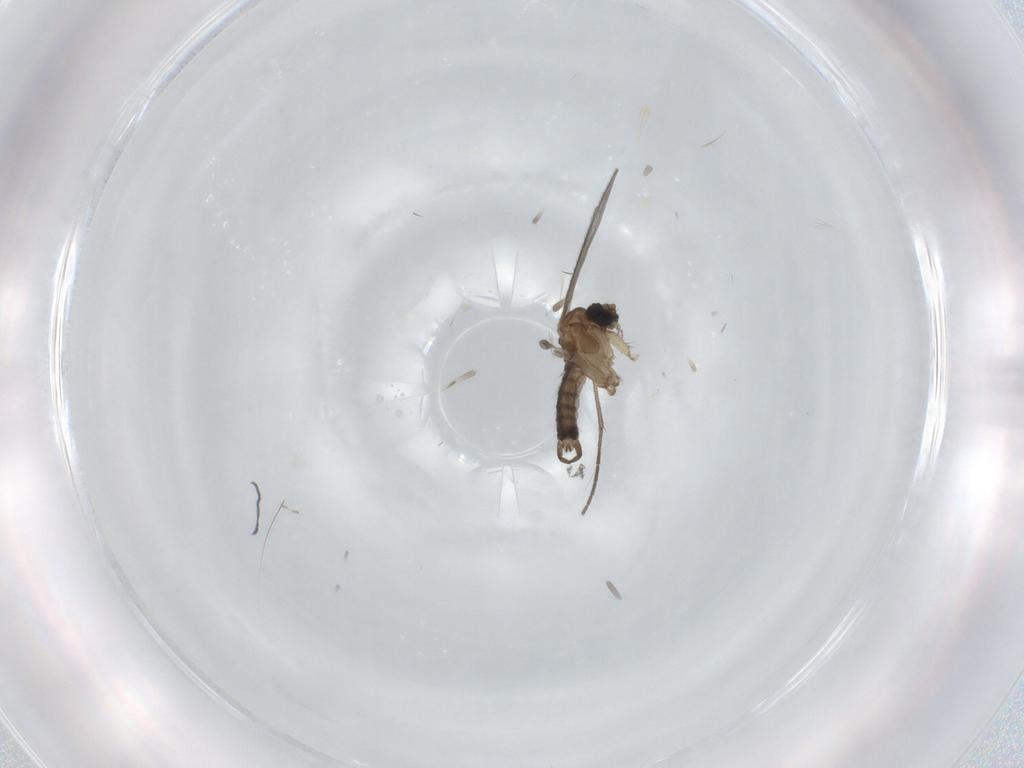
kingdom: Animalia
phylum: Arthropoda
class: Insecta
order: Diptera
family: Sciaridae
